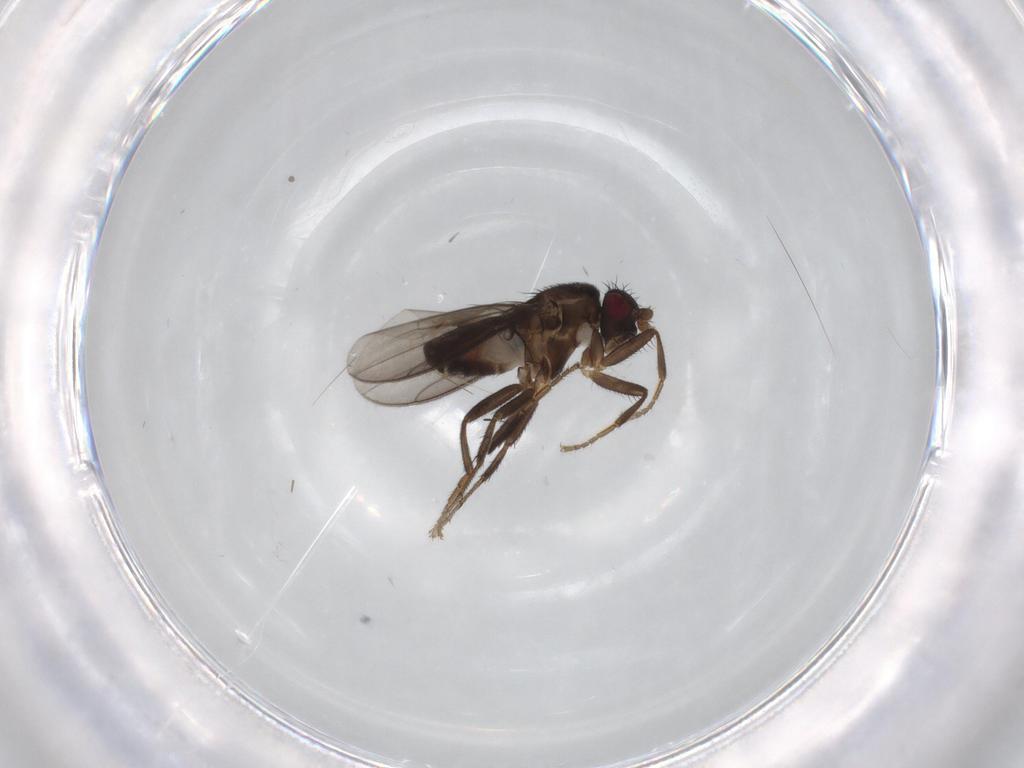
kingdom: Animalia
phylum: Arthropoda
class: Insecta
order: Diptera
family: Sphaeroceridae
